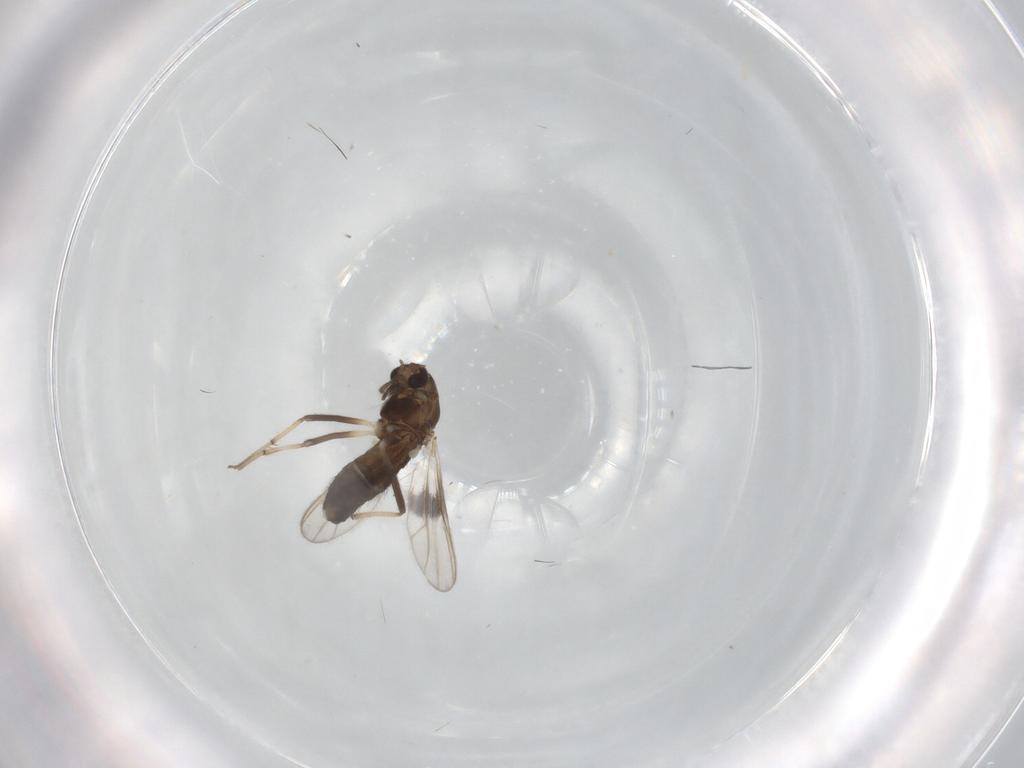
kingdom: Animalia
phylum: Arthropoda
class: Insecta
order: Diptera
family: Chironomidae
